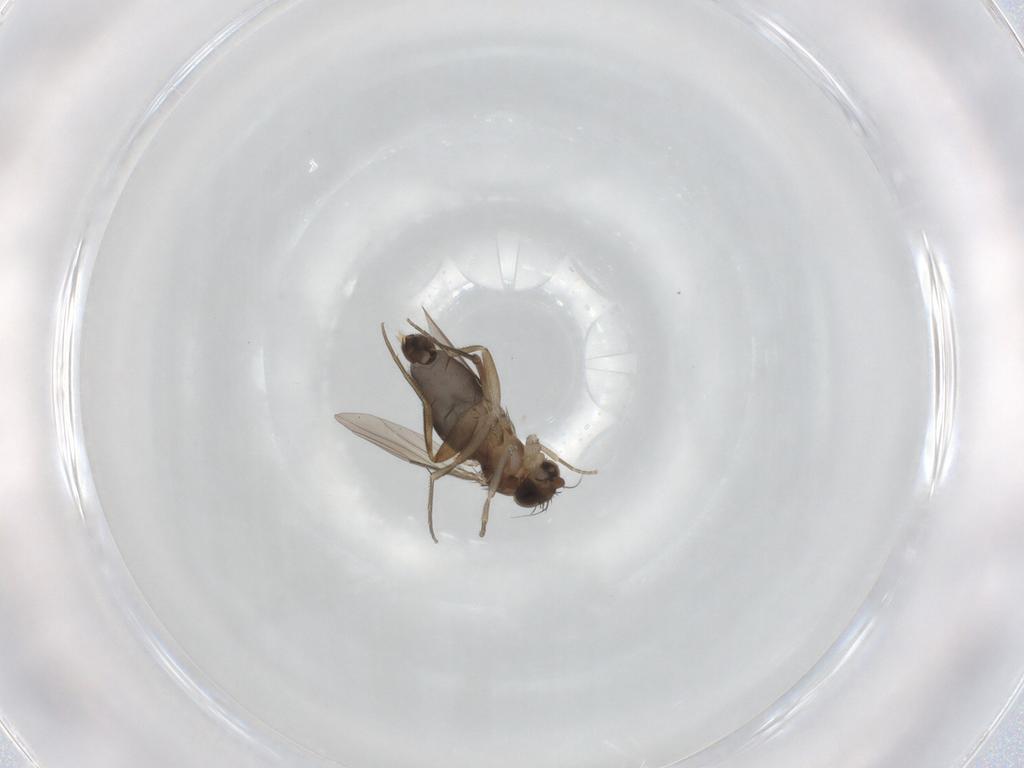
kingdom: Animalia
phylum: Arthropoda
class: Insecta
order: Diptera
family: Phoridae
